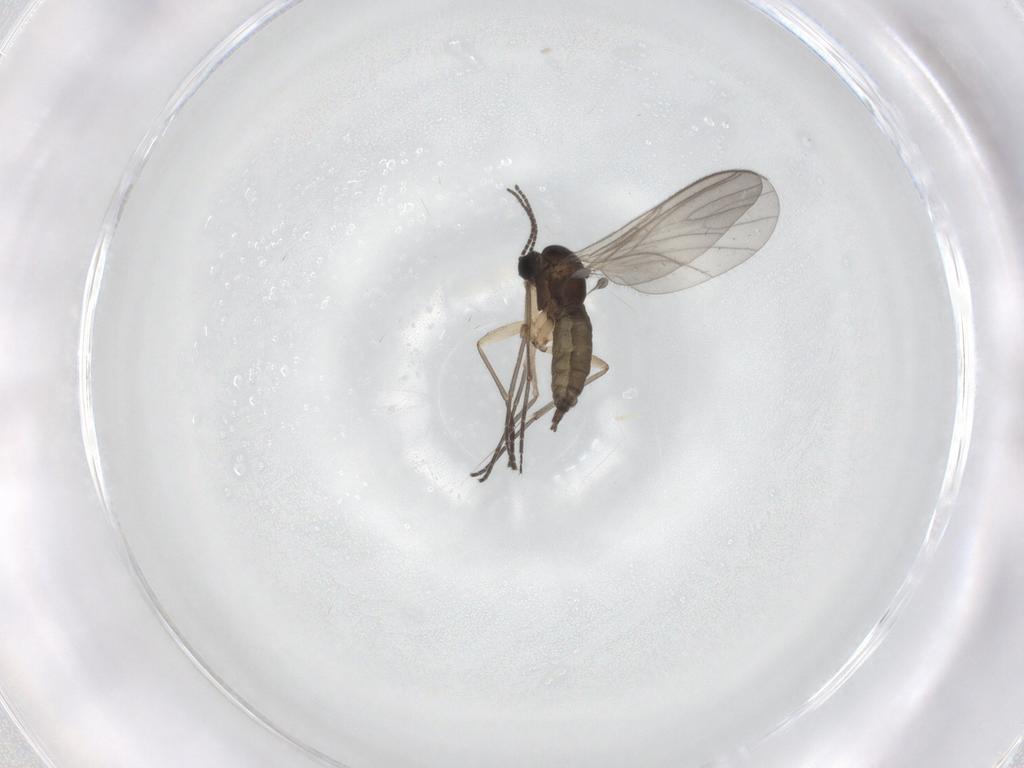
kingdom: Animalia
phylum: Arthropoda
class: Insecta
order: Diptera
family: Sciaridae
